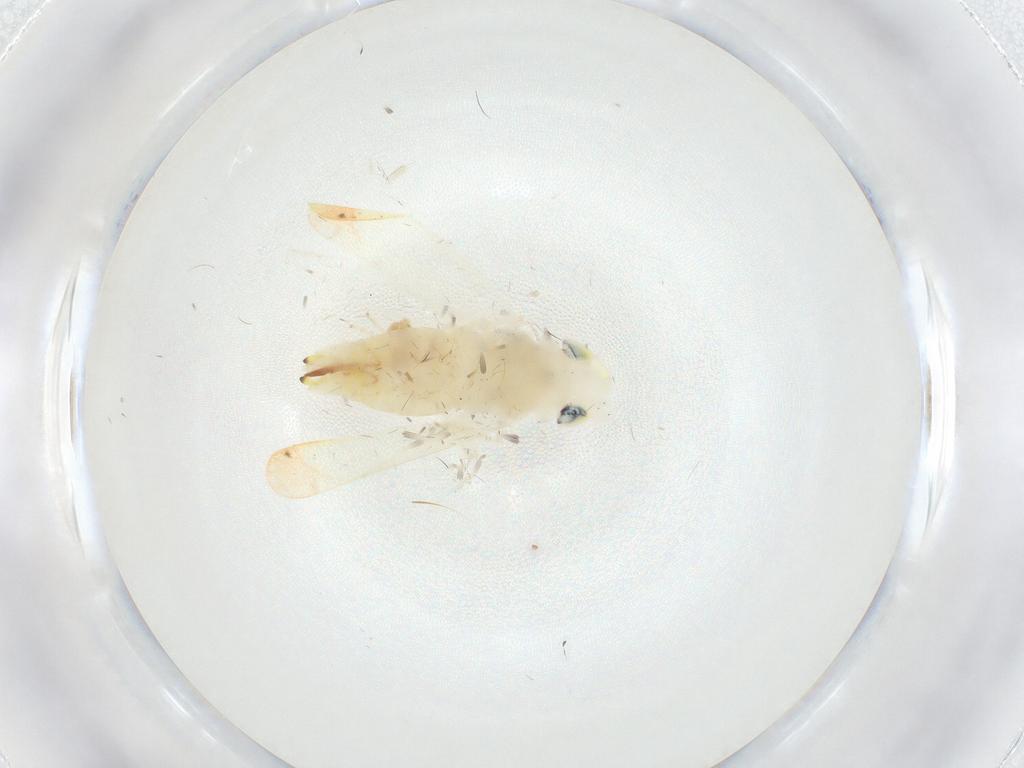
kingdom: Animalia
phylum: Arthropoda
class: Insecta
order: Hemiptera
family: Cicadellidae
